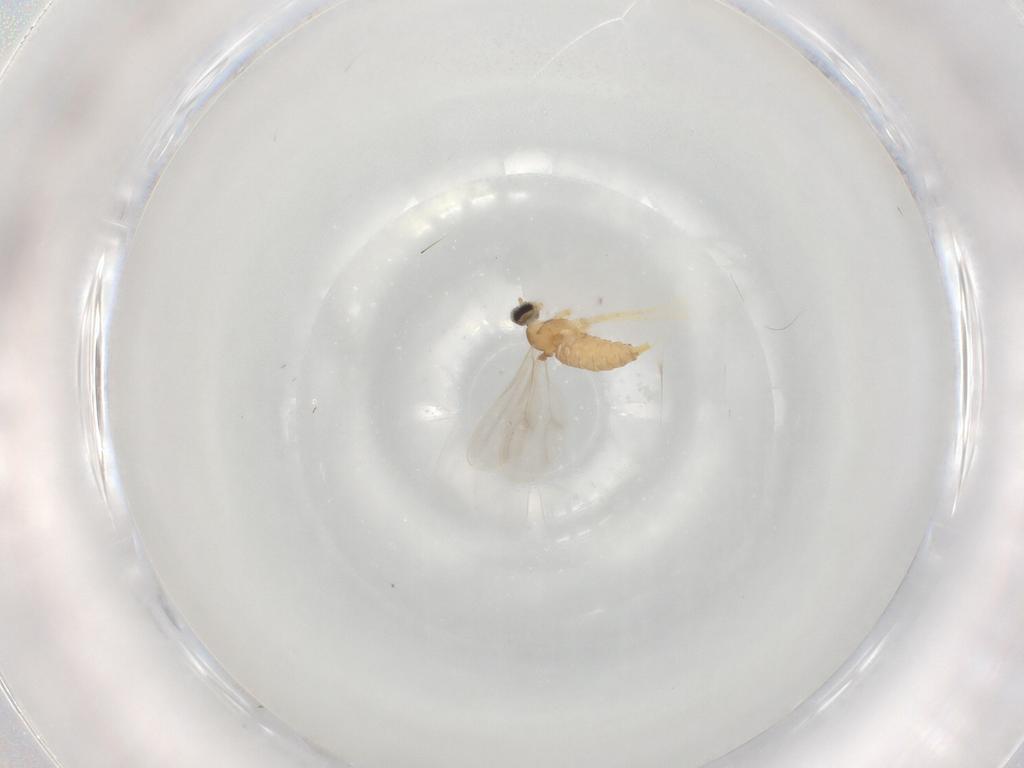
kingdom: Animalia
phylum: Arthropoda
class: Insecta
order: Diptera
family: Cecidomyiidae
